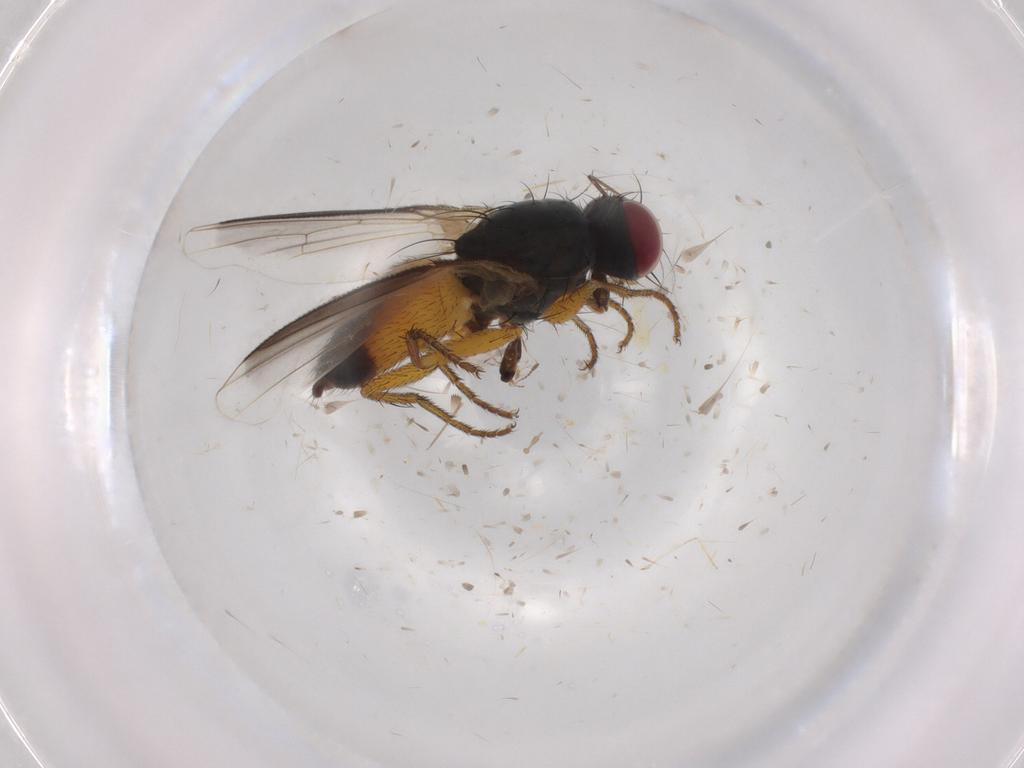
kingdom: Animalia
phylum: Arthropoda
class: Insecta
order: Diptera
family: Muscidae
